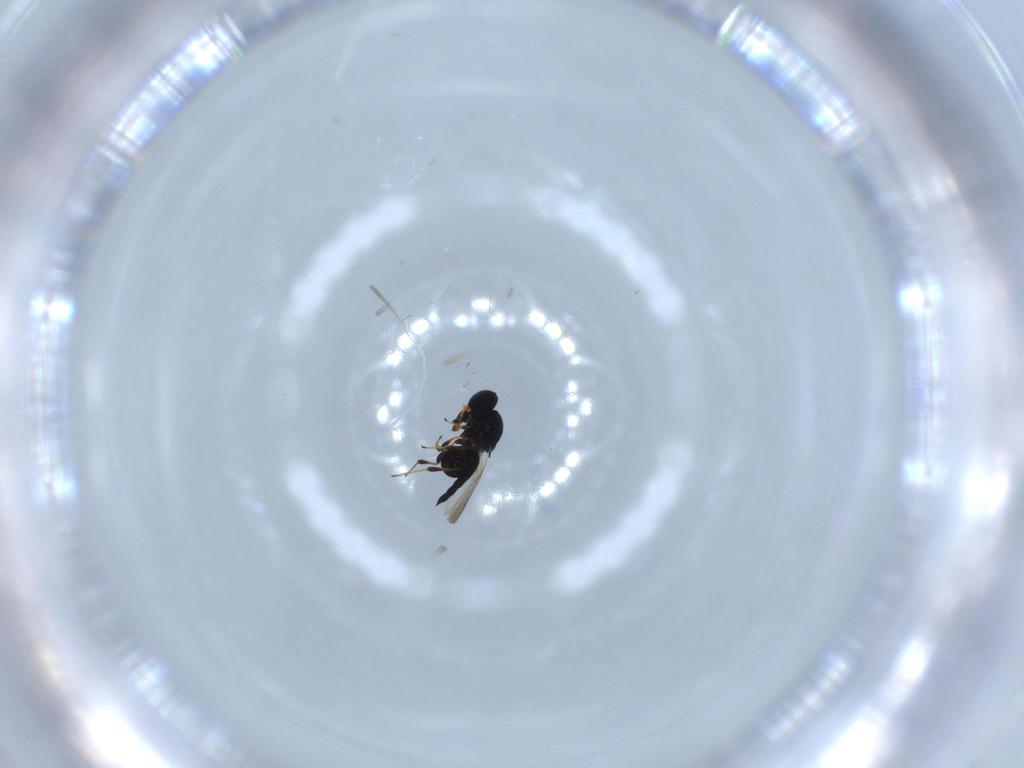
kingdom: Animalia
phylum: Arthropoda
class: Insecta
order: Hymenoptera
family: Platygastridae
